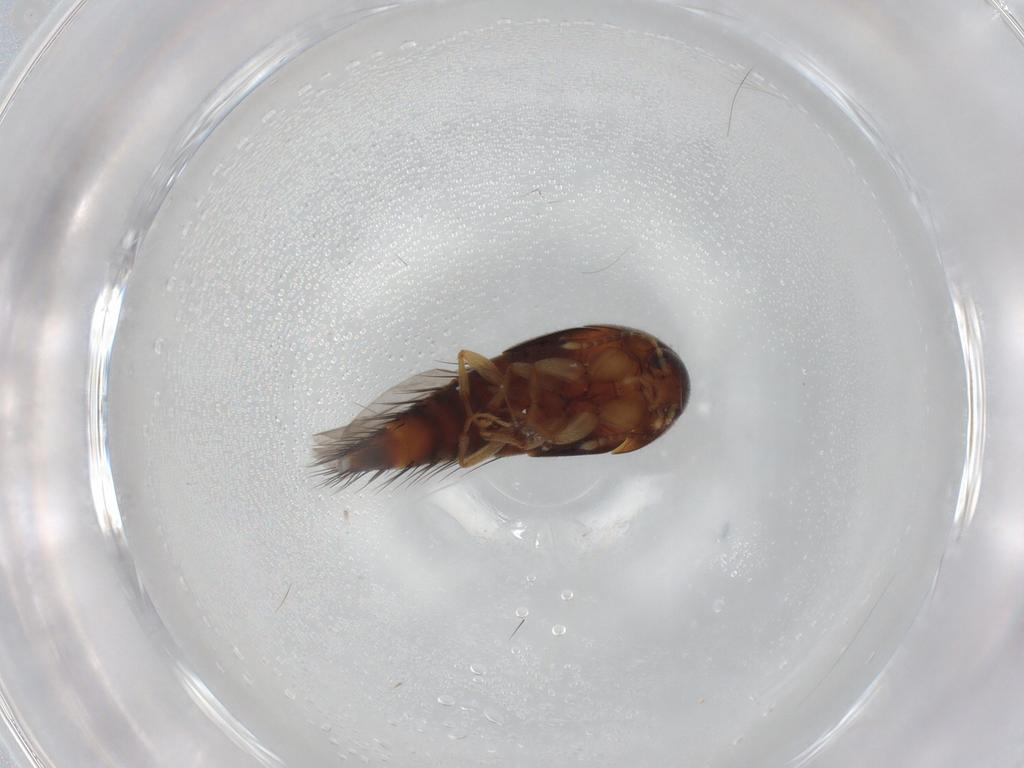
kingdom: Animalia
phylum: Arthropoda
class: Insecta
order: Coleoptera
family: Staphylinidae
